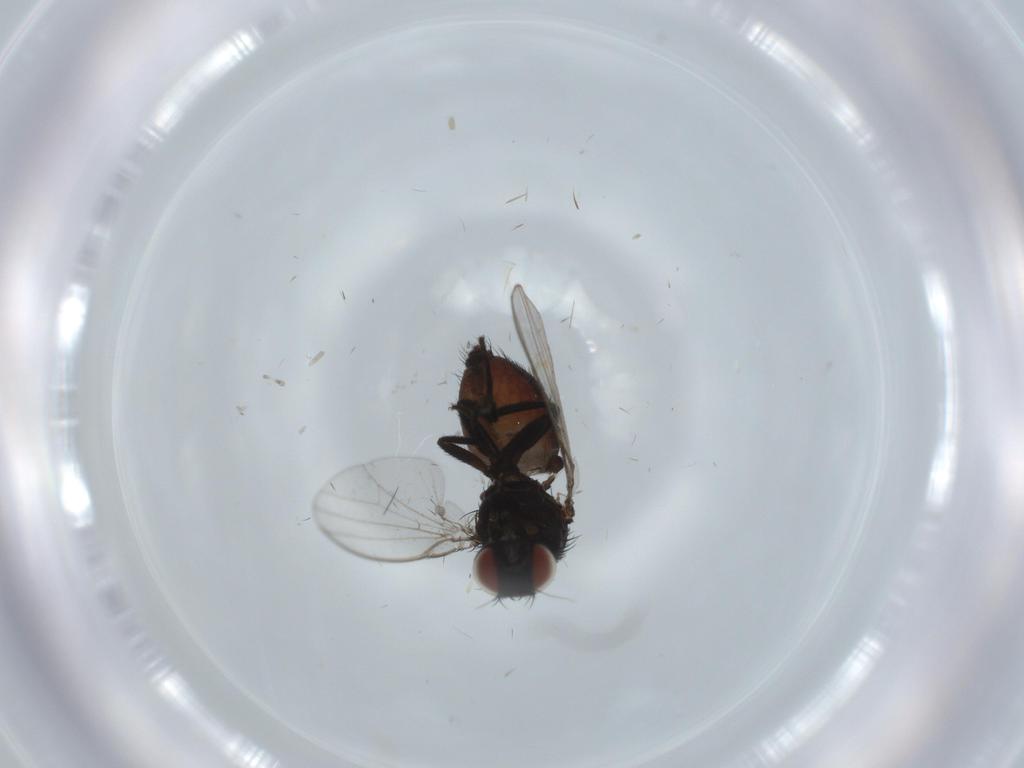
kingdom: Animalia
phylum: Arthropoda
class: Insecta
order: Diptera
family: Milichiidae
